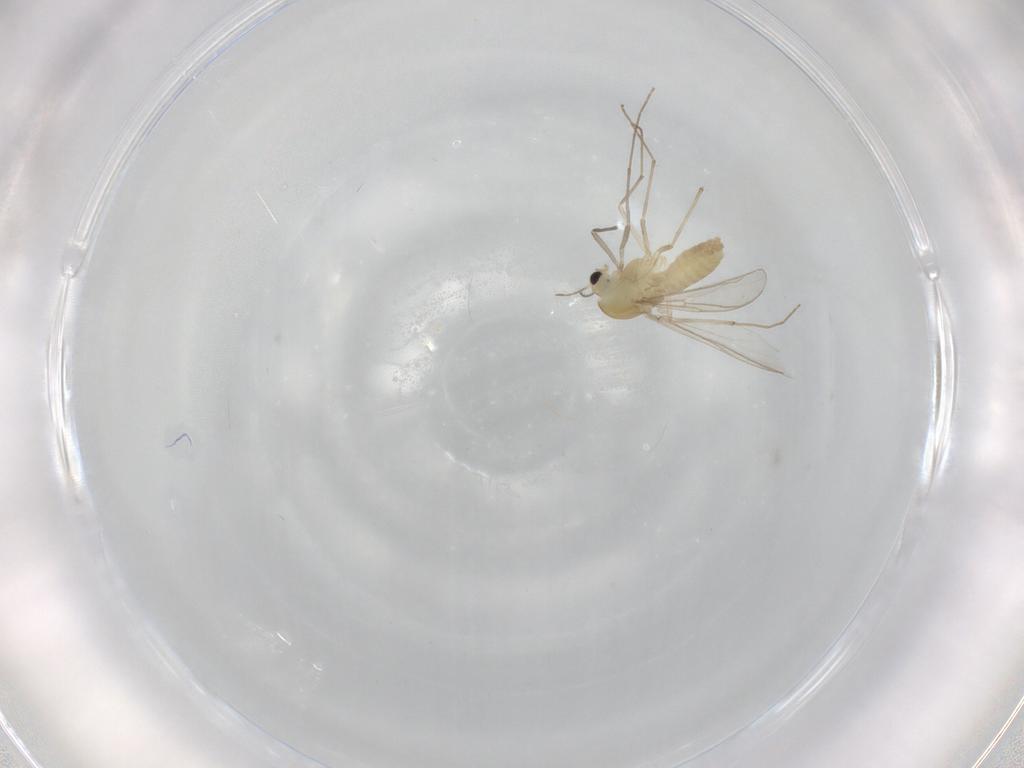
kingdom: Animalia
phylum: Arthropoda
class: Insecta
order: Diptera
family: Chironomidae
